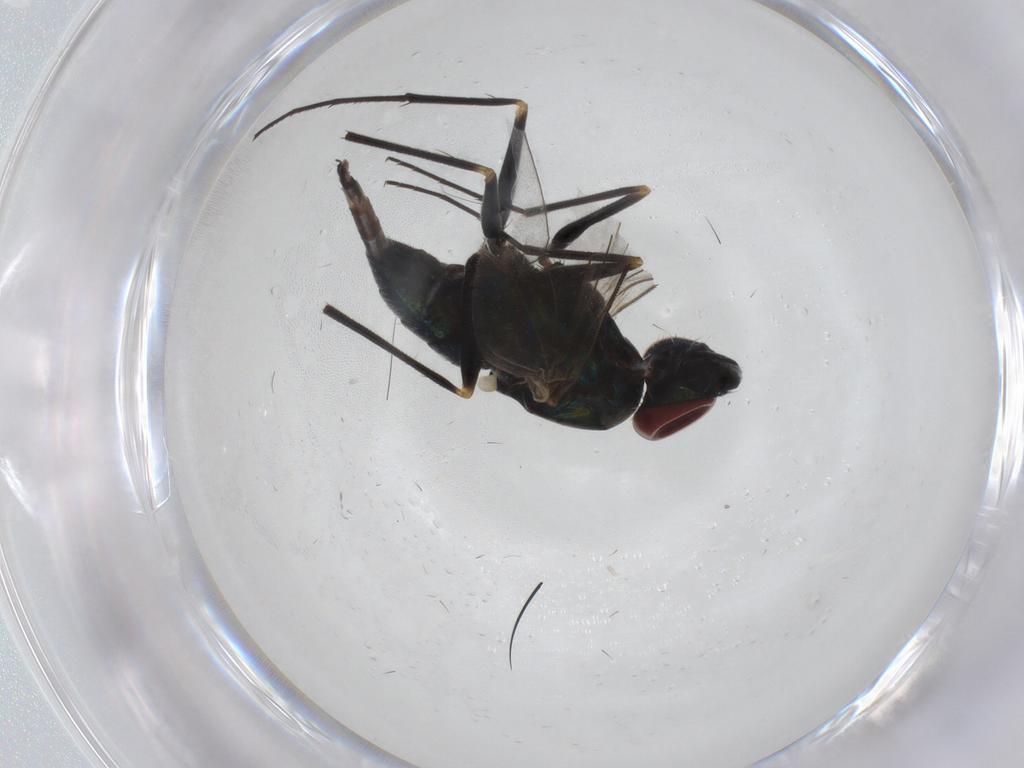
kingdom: Animalia
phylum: Arthropoda
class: Insecta
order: Diptera
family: Dolichopodidae
